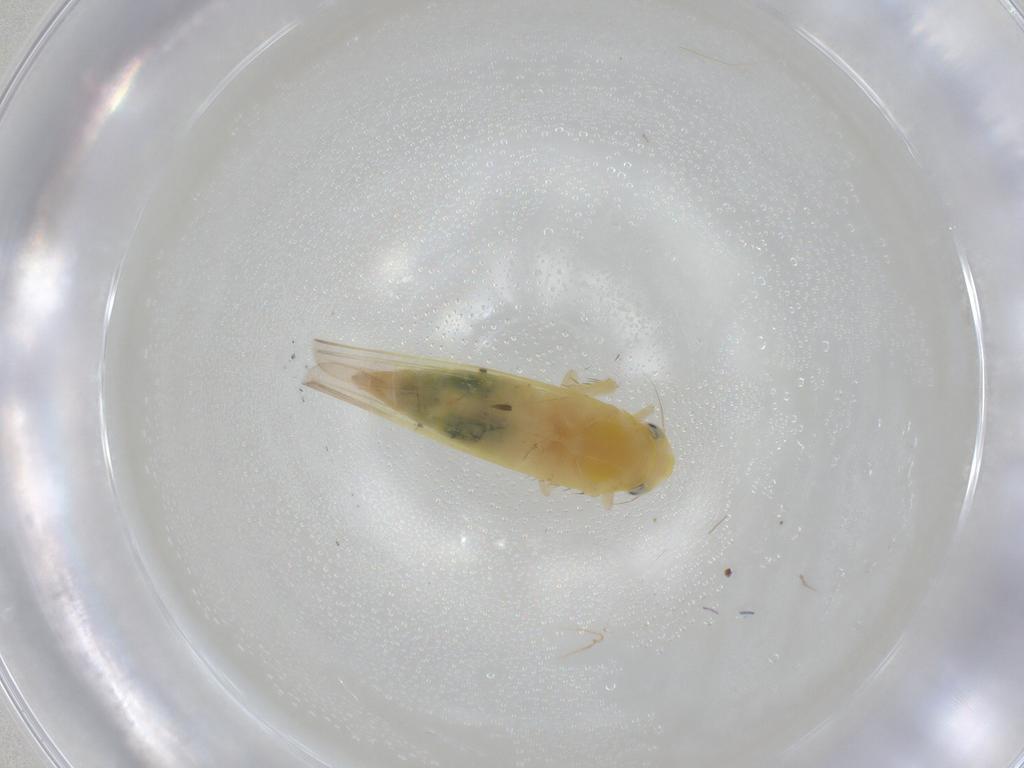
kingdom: Animalia
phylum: Arthropoda
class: Insecta
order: Hemiptera
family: Cicadellidae
